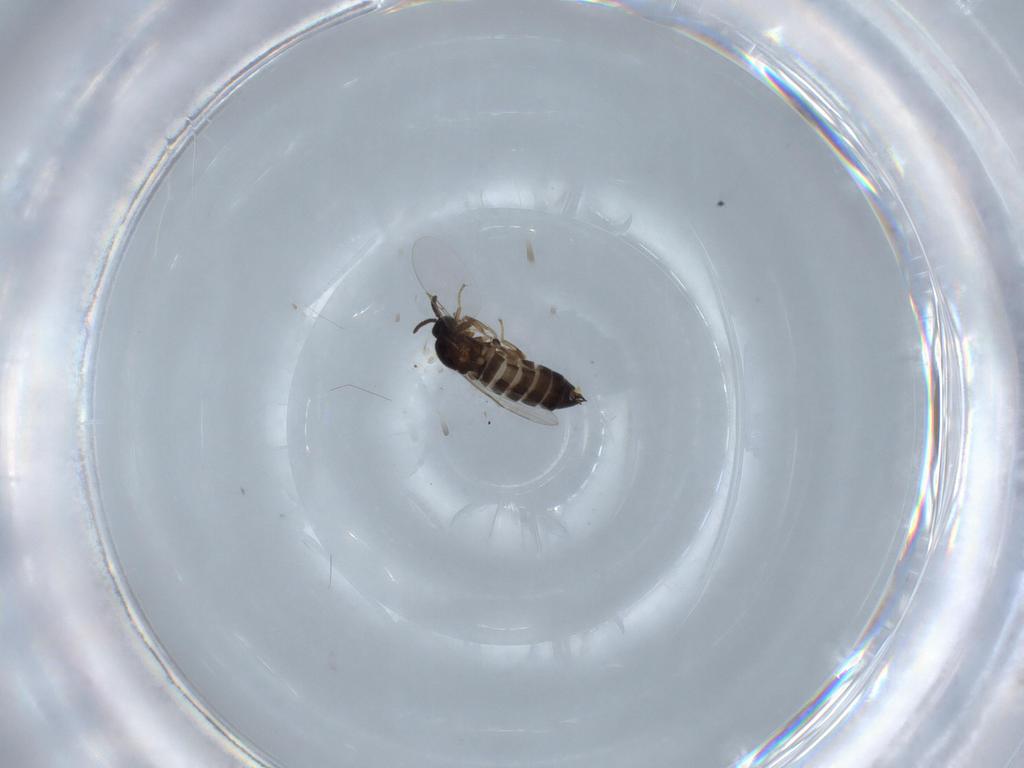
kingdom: Animalia
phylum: Arthropoda
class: Insecta
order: Diptera
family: Scatopsidae
